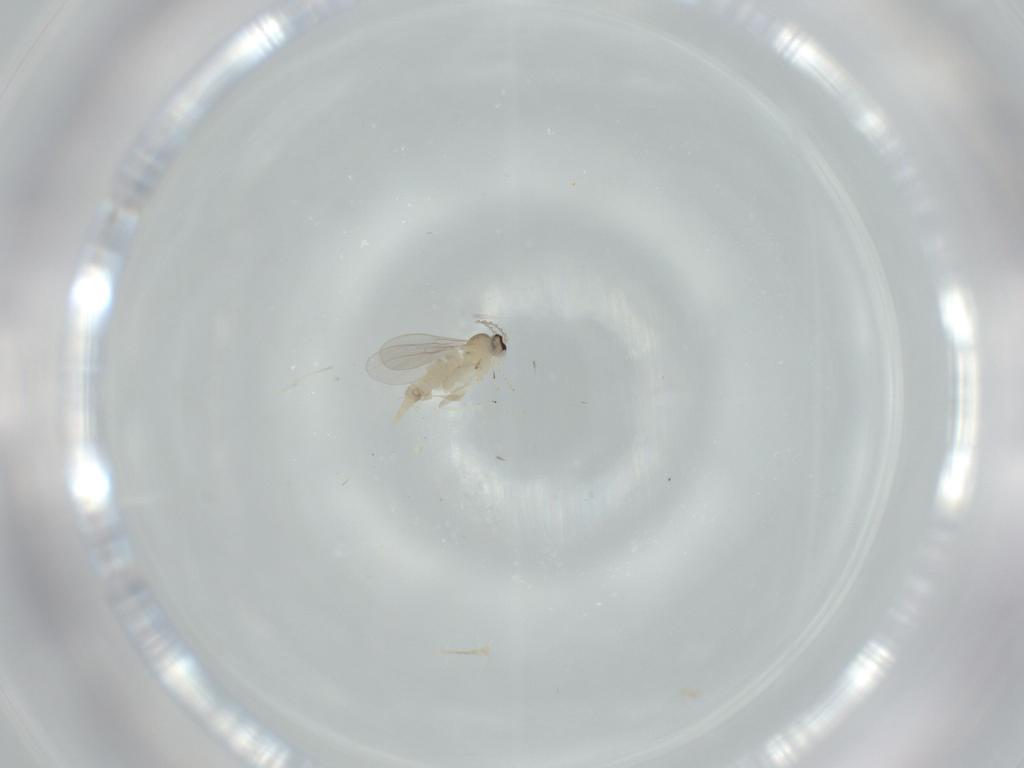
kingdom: Animalia
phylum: Arthropoda
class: Insecta
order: Diptera
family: Cecidomyiidae
